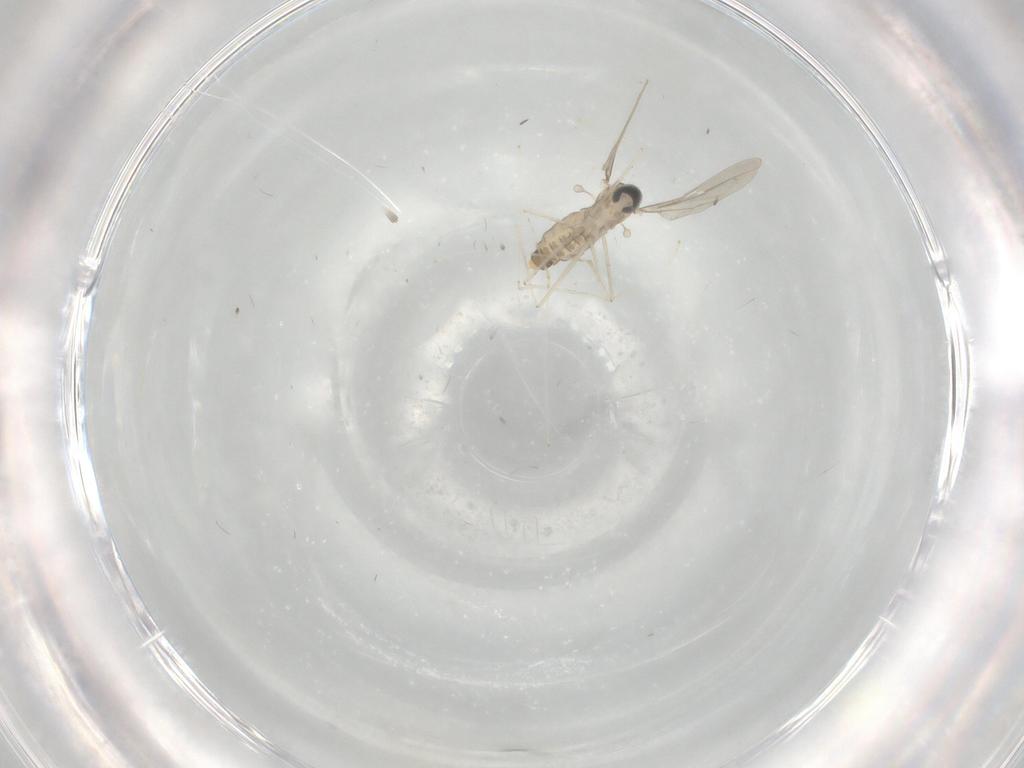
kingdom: Animalia
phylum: Arthropoda
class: Insecta
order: Diptera
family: Cecidomyiidae
